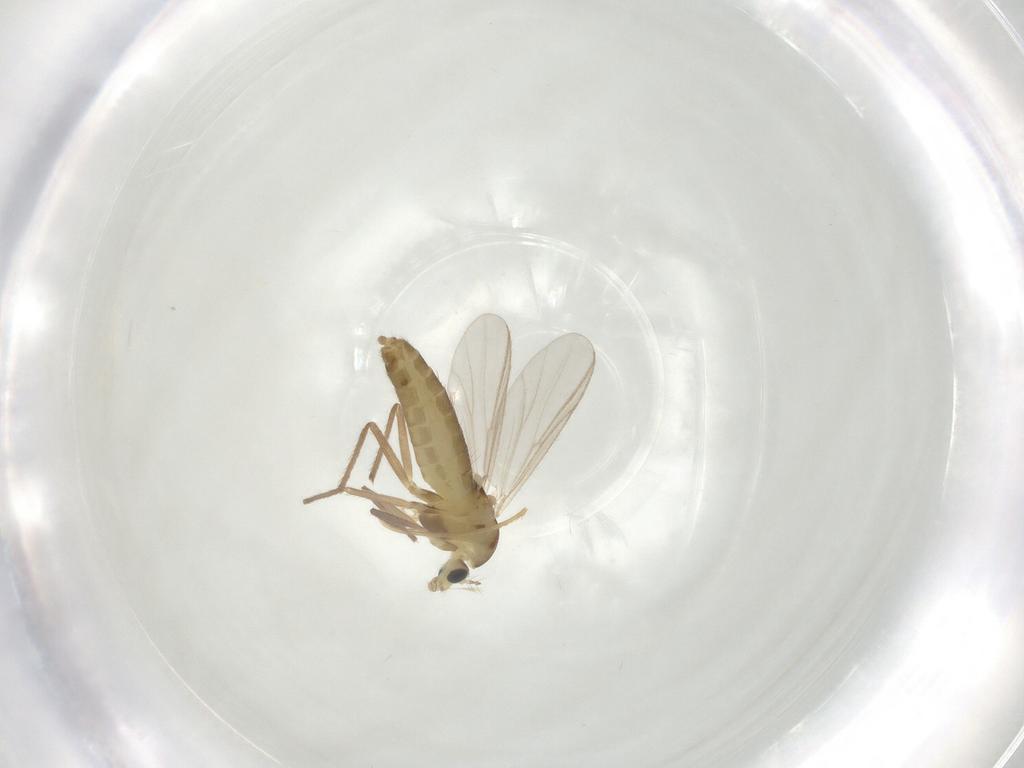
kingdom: Animalia
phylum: Arthropoda
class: Insecta
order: Diptera
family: Chironomidae
